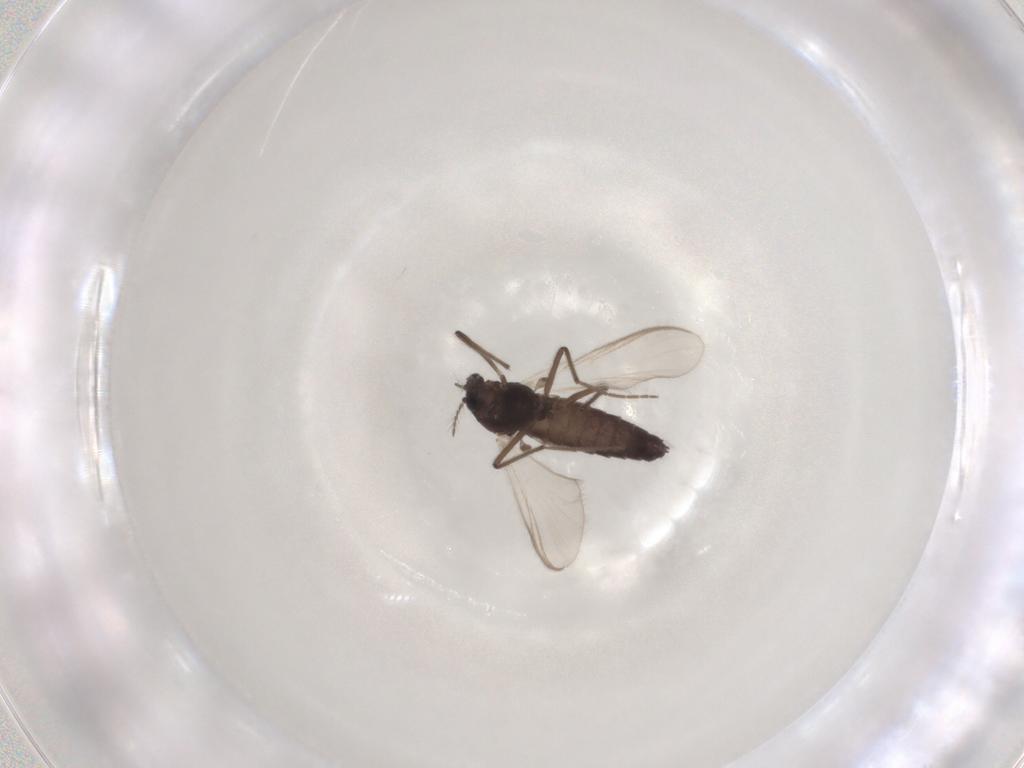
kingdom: Animalia
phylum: Arthropoda
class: Insecta
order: Diptera
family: Chironomidae
